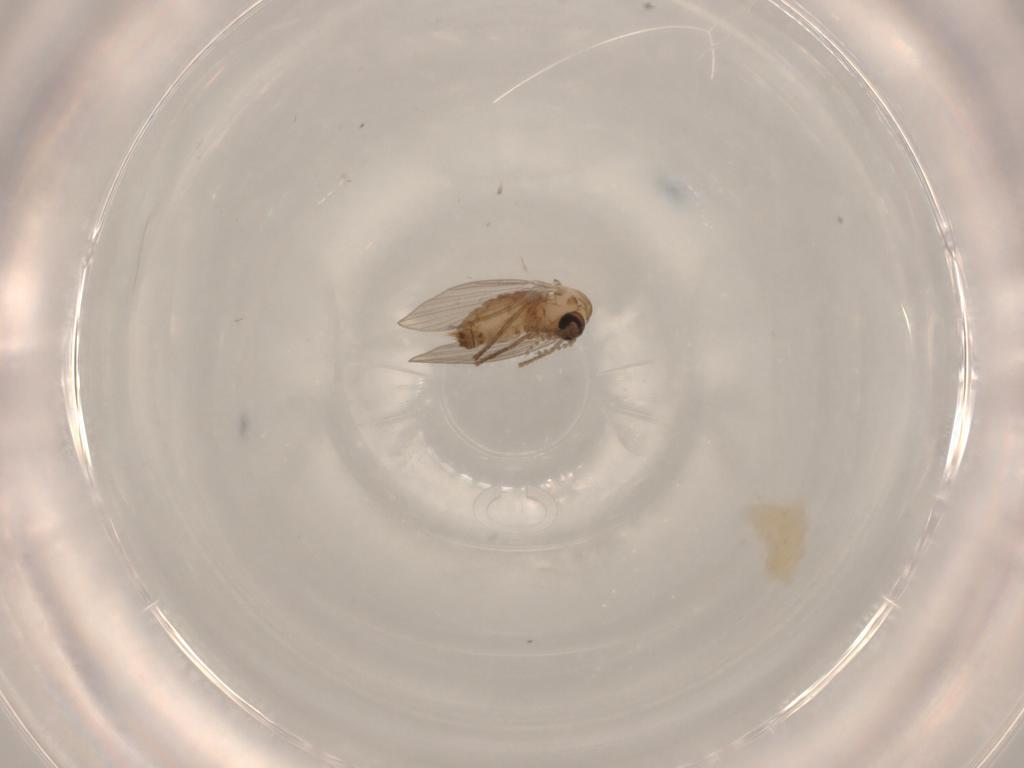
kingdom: Animalia
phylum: Arthropoda
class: Insecta
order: Diptera
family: Psychodidae
